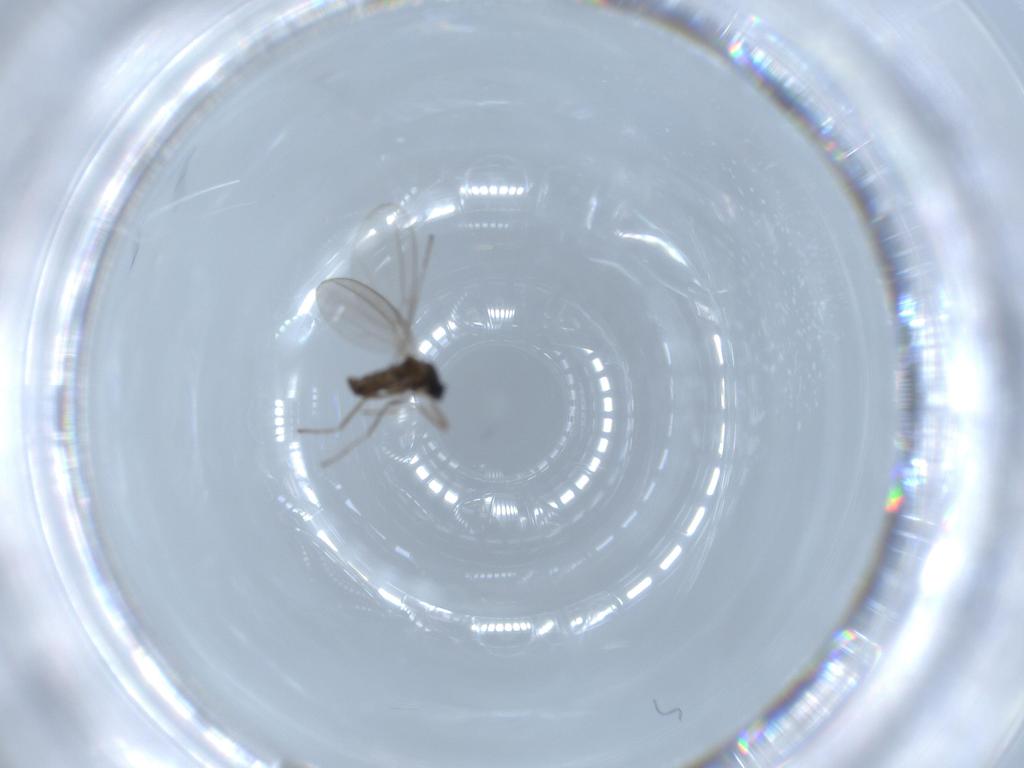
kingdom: Animalia
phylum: Arthropoda
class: Insecta
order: Diptera
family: Cecidomyiidae
